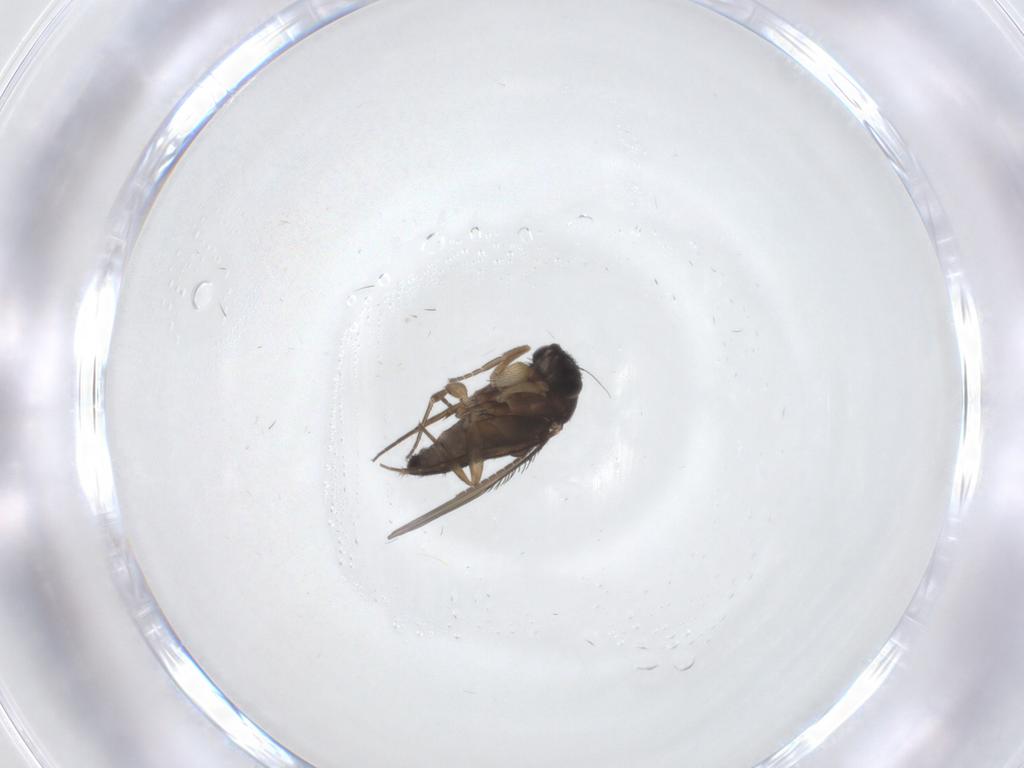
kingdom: Animalia
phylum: Arthropoda
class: Insecta
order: Diptera
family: Phoridae
